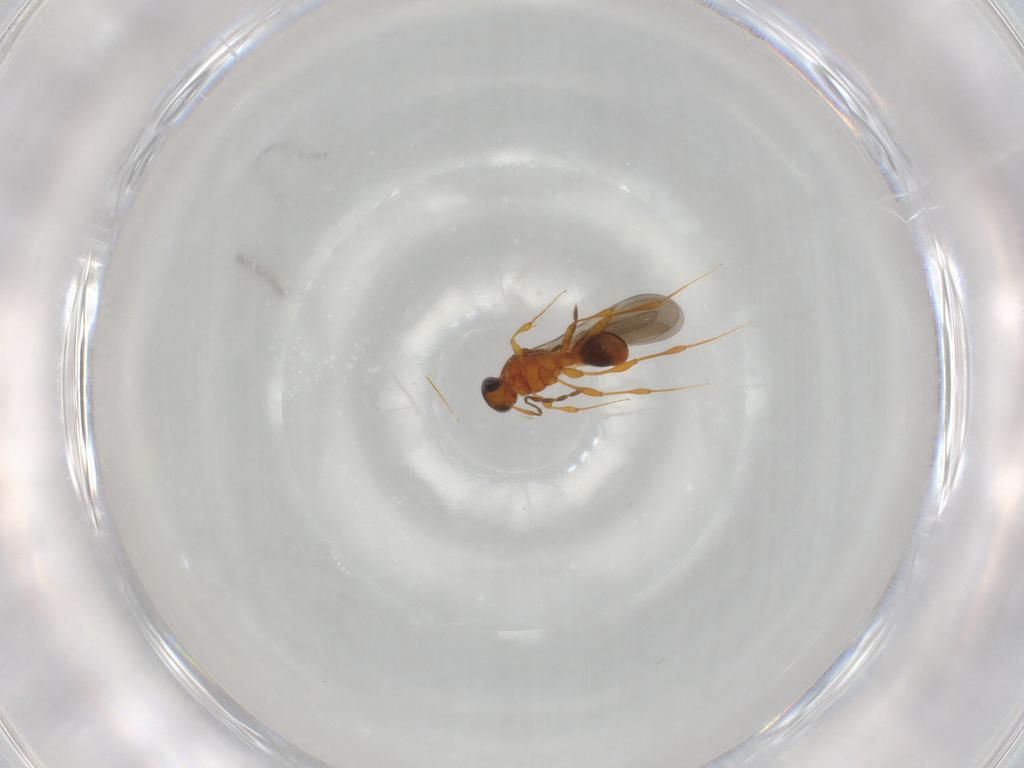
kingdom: Animalia
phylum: Arthropoda
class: Insecta
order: Hymenoptera
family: Platygastridae
